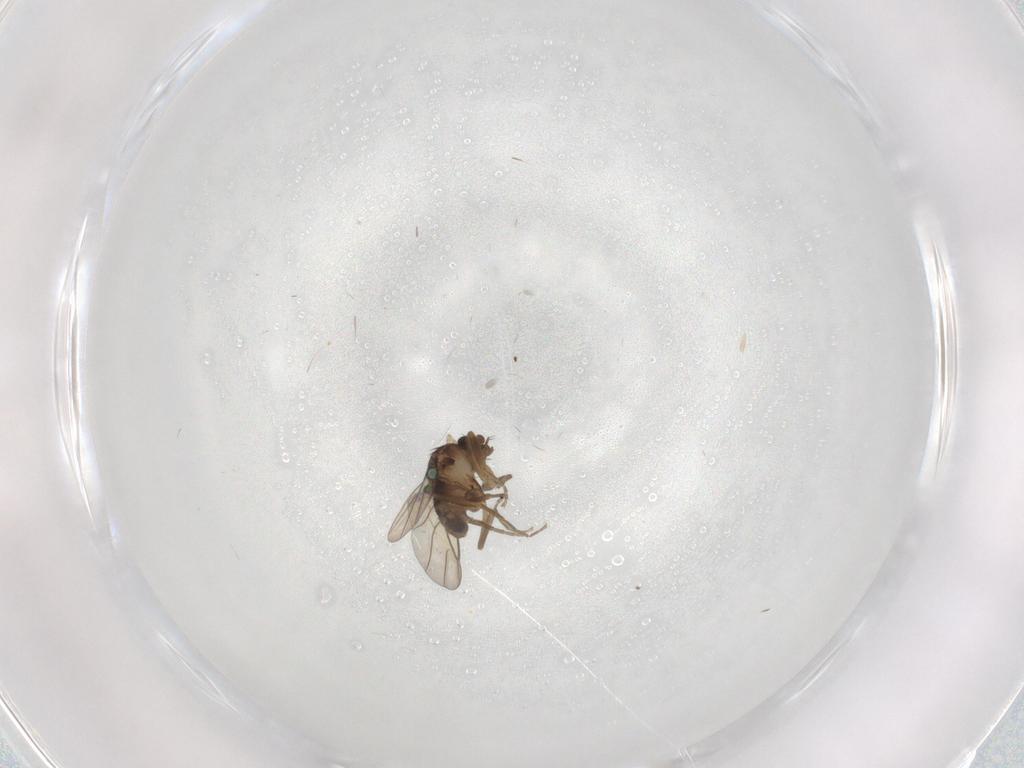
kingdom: Animalia
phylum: Arthropoda
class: Insecta
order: Diptera
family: Phoridae
